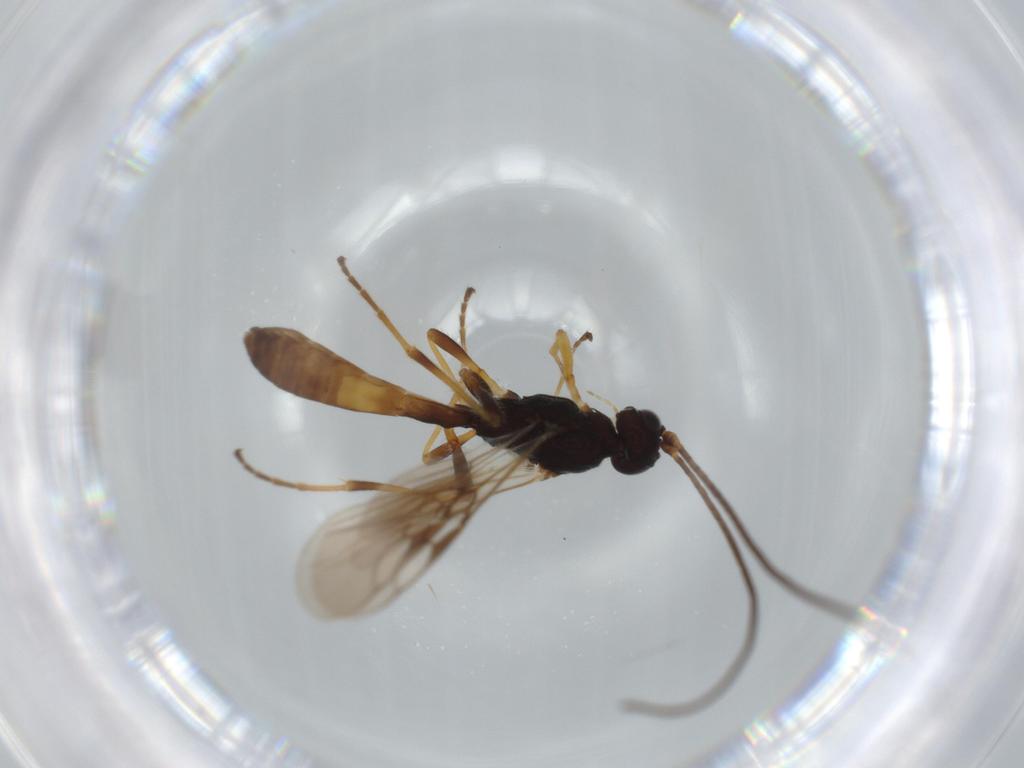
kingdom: Animalia
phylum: Arthropoda
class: Insecta
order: Hymenoptera
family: Braconidae
